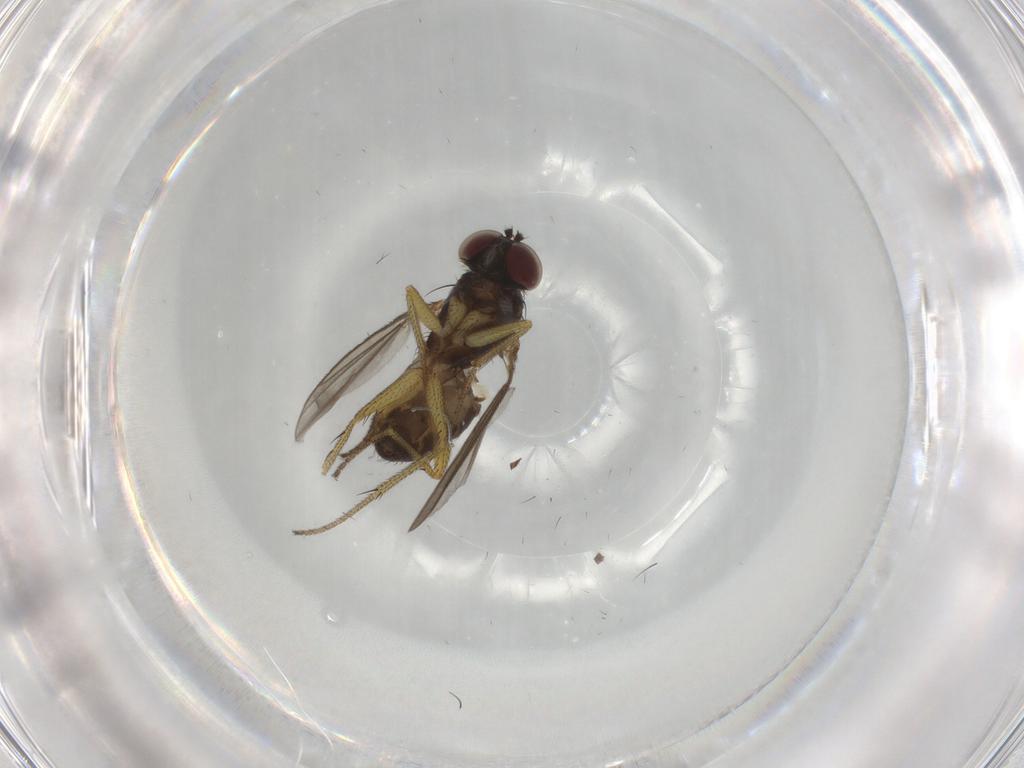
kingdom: Animalia
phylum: Arthropoda
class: Insecta
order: Diptera
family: Dolichopodidae
